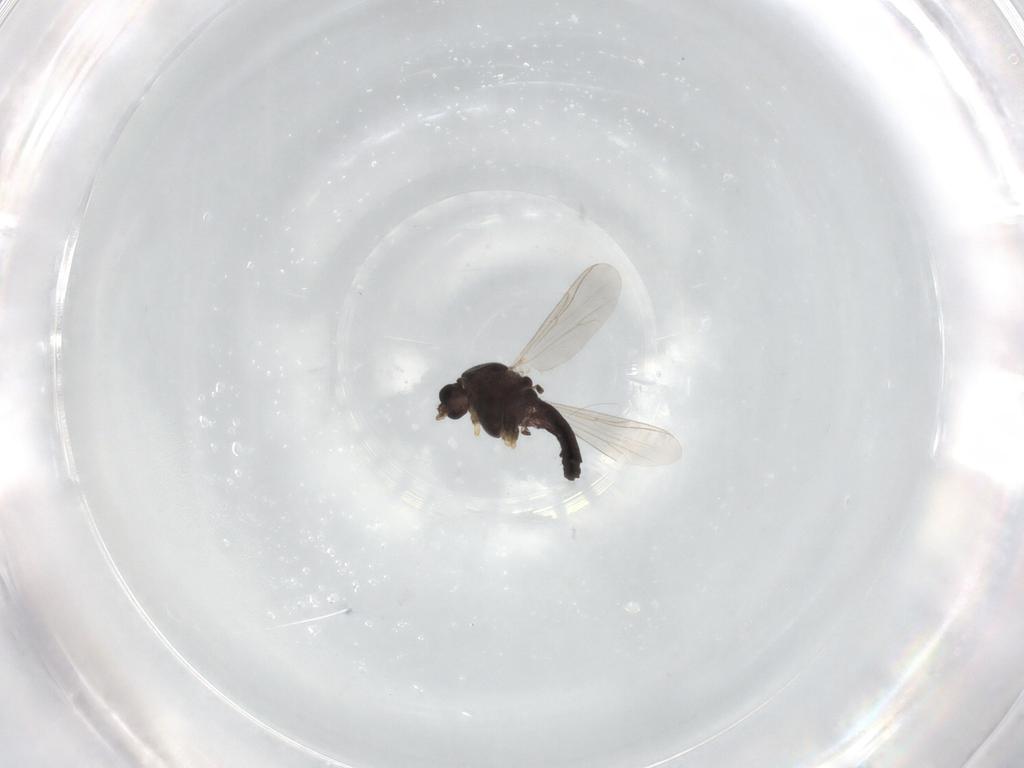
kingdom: Animalia
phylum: Arthropoda
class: Insecta
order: Diptera
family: Chironomidae
